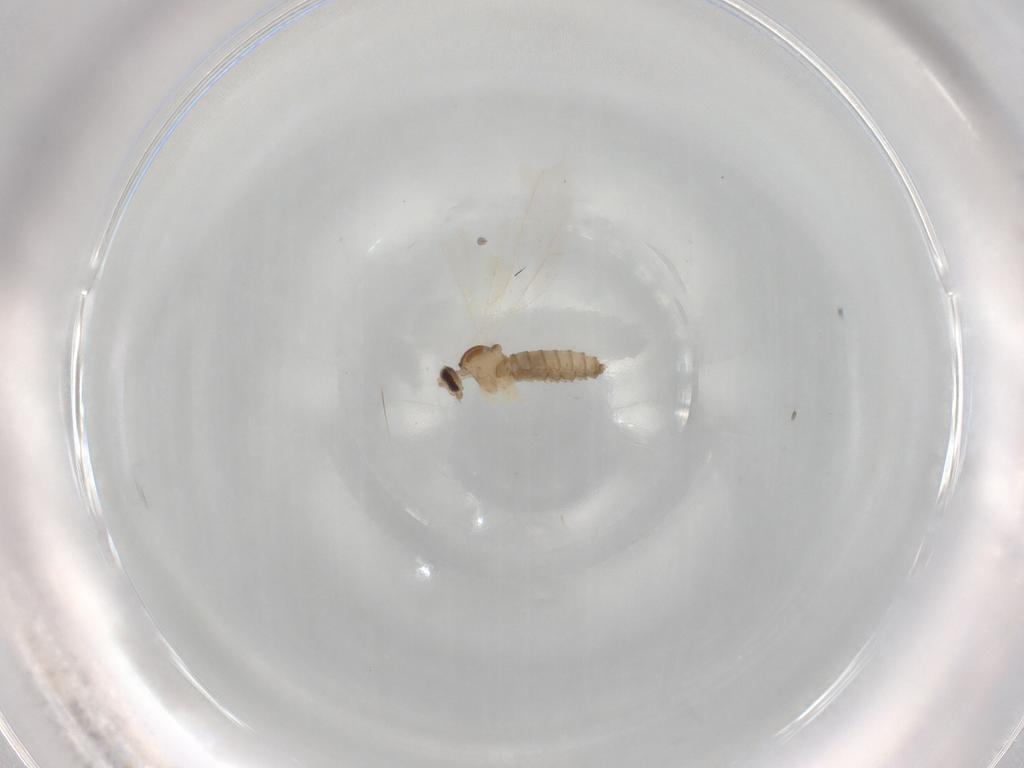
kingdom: Animalia
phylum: Arthropoda
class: Insecta
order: Diptera
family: Cecidomyiidae
